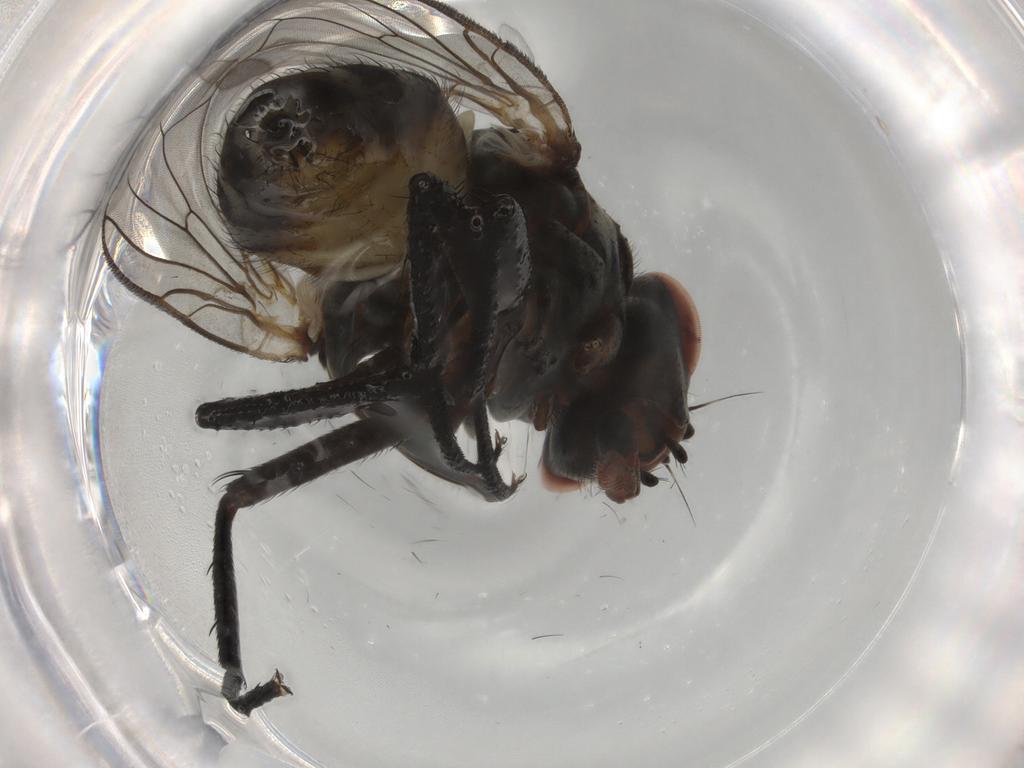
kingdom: Animalia
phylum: Arthropoda
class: Insecta
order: Diptera
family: Anthomyiidae
